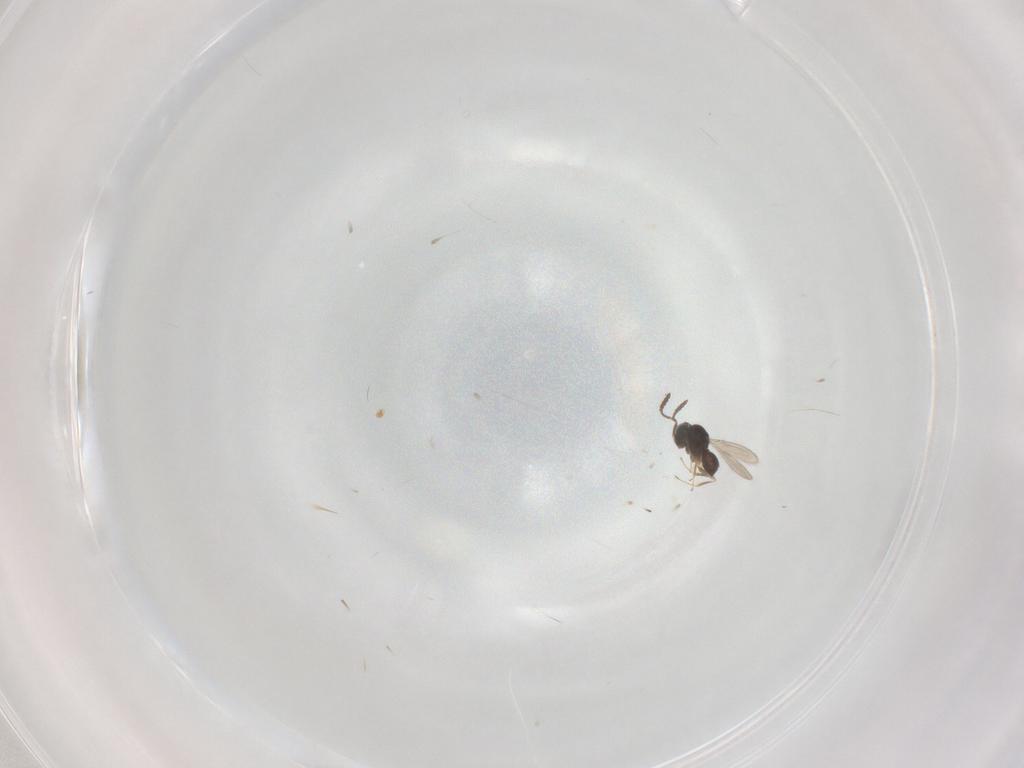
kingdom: Animalia
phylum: Arthropoda
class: Insecta
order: Hymenoptera
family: Scelionidae
